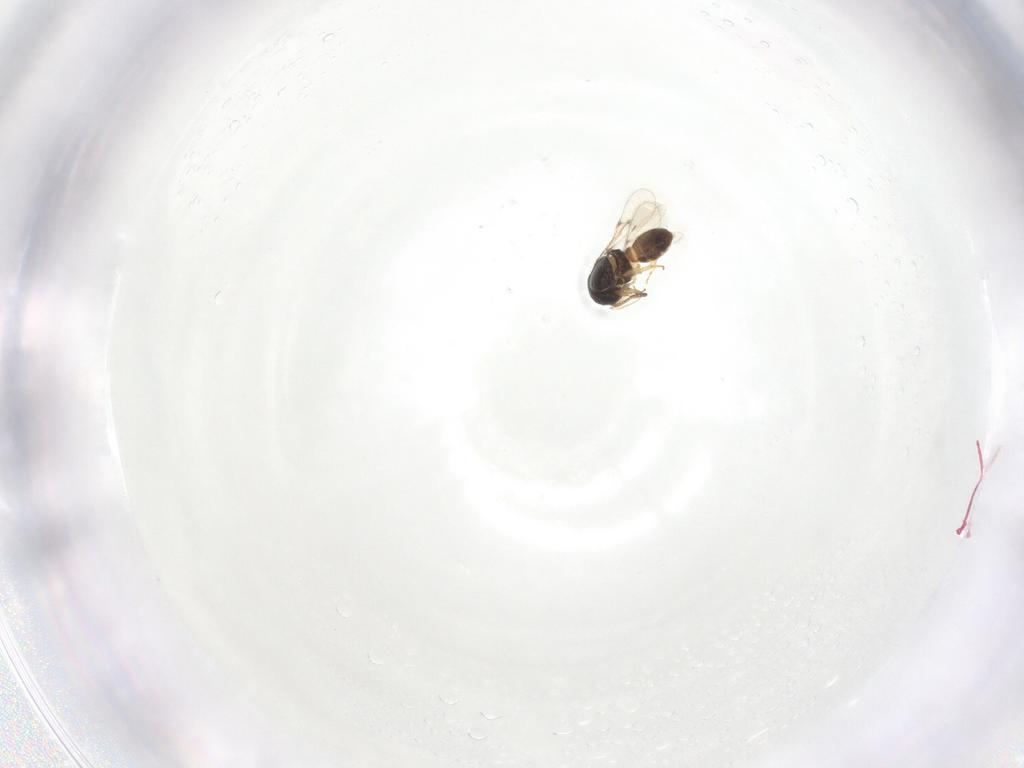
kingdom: Animalia
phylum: Arthropoda
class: Insecta
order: Hymenoptera
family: Scelionidae
